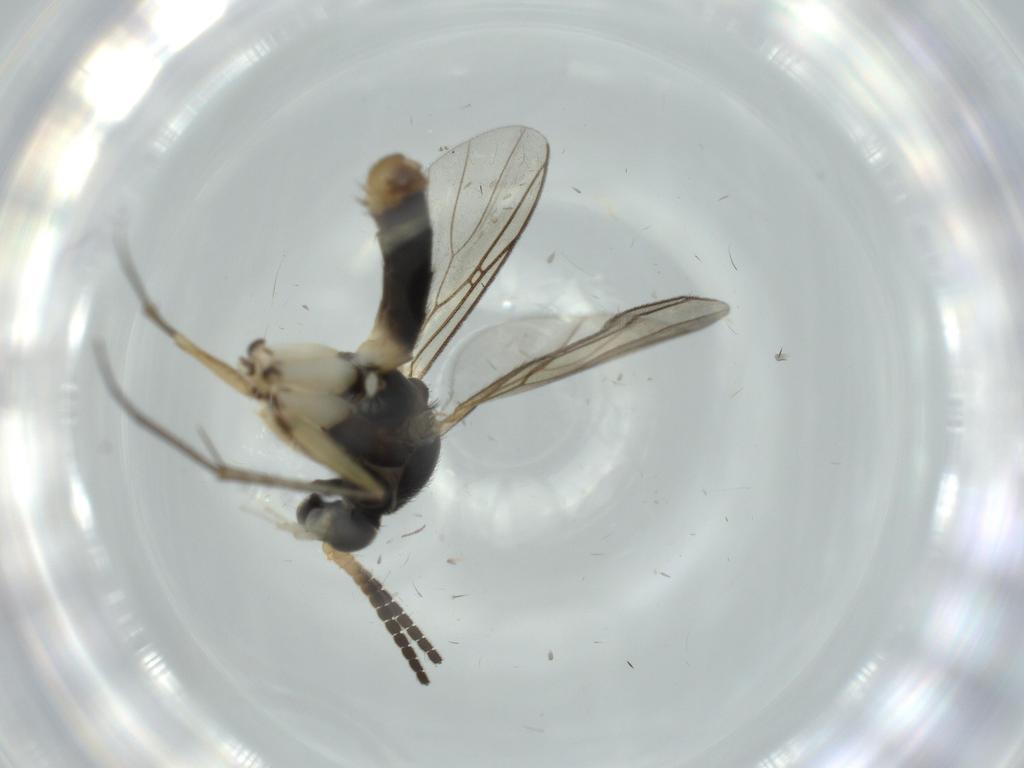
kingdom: Animalia
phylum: Arthropoda
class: Insecta
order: Diptera
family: Mycetophilidae
